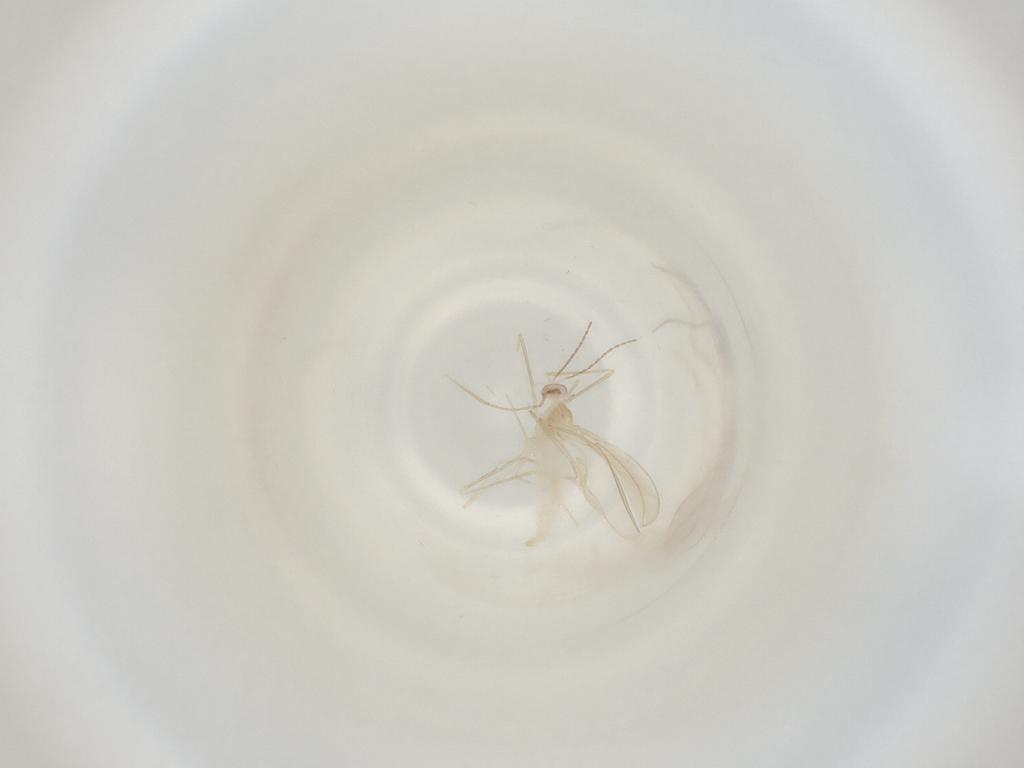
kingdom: Animalia
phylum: Arthropoda
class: Insecta
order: Diptera
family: Cecidomyiidae
